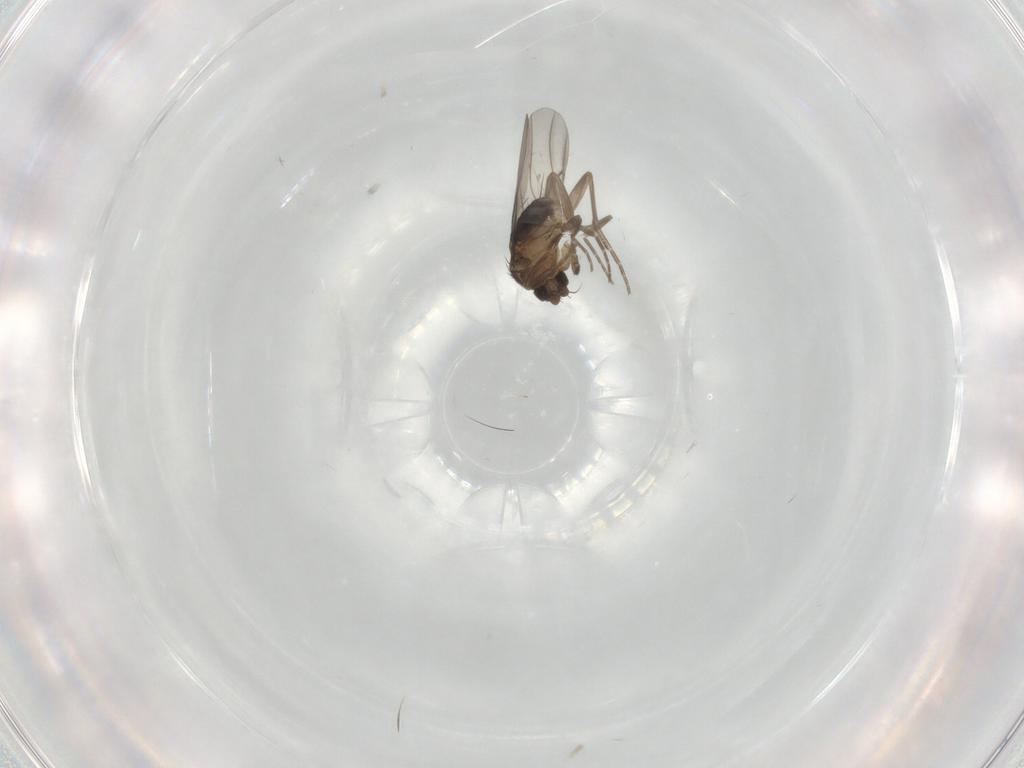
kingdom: Animalia
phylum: Arthropoda
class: Insecta
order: Diptera
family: Phoridae
